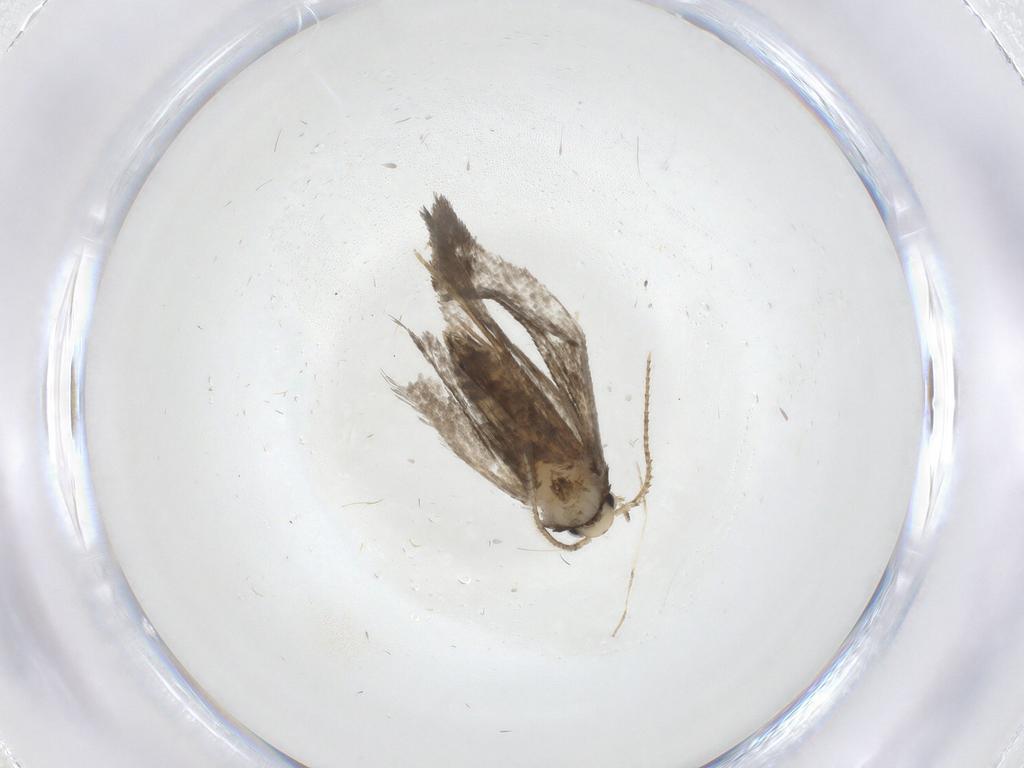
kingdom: Animalia
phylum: Arthropoda
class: Insecta
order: Lepidoptera
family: Psychidae
